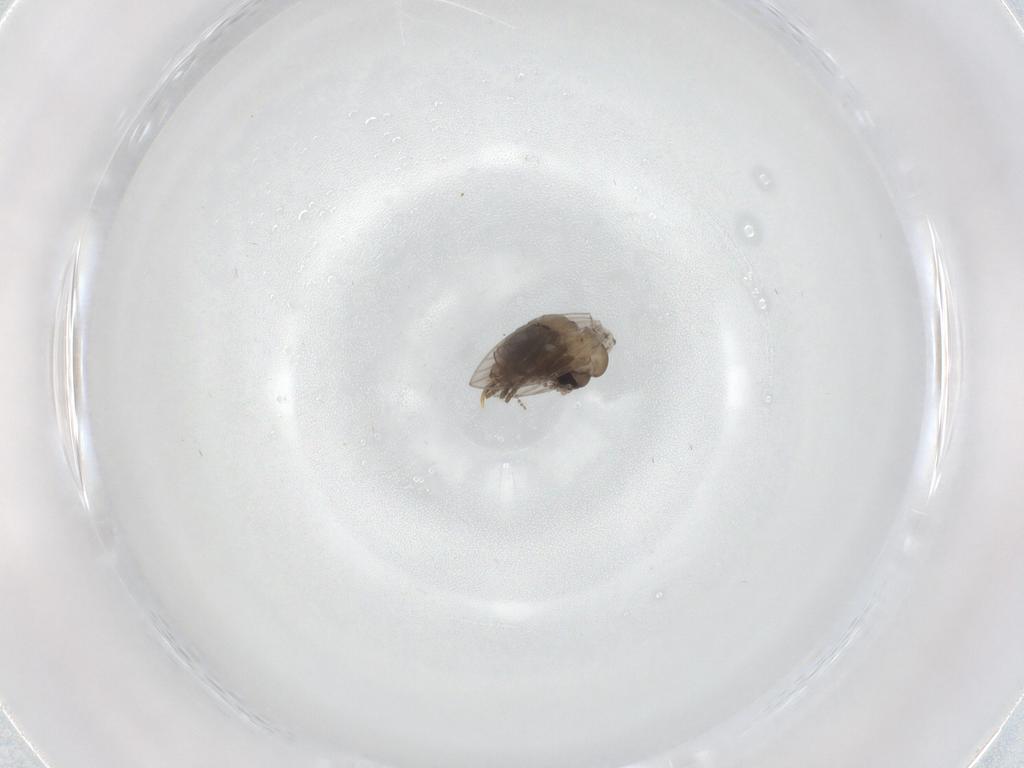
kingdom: Animalia
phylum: Arthropoda
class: Insecta
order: Diptera
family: Psychodidae
